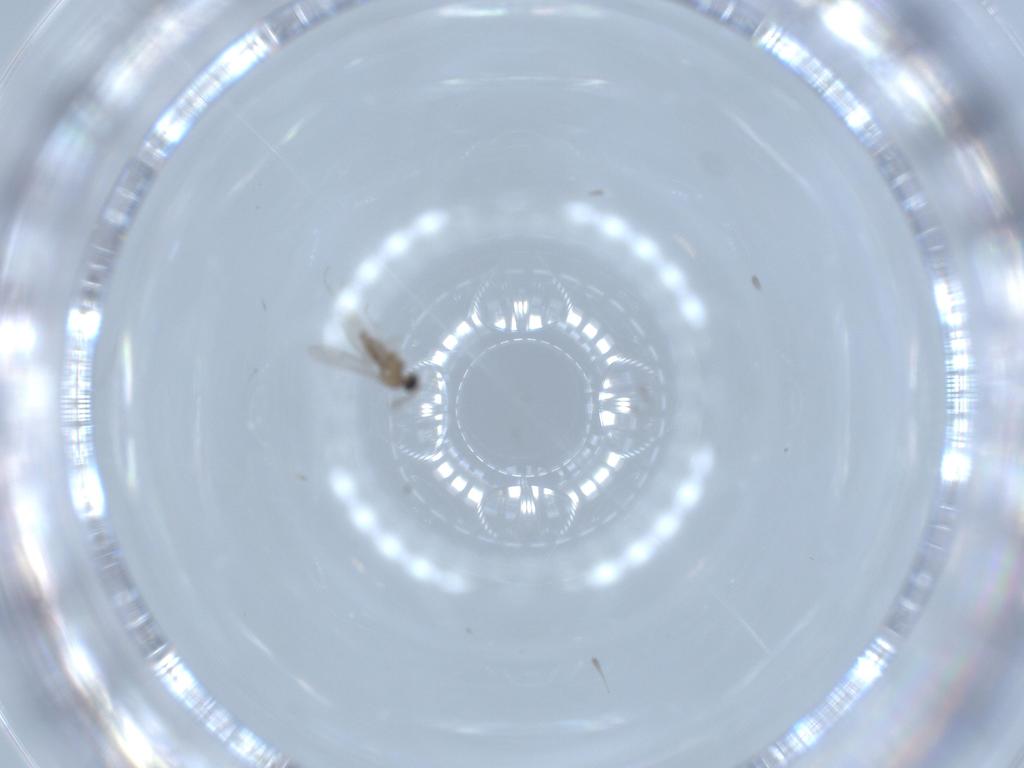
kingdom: Animalia
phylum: Arthropoda
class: Insecta
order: Diptera
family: Cecidomyiidae
